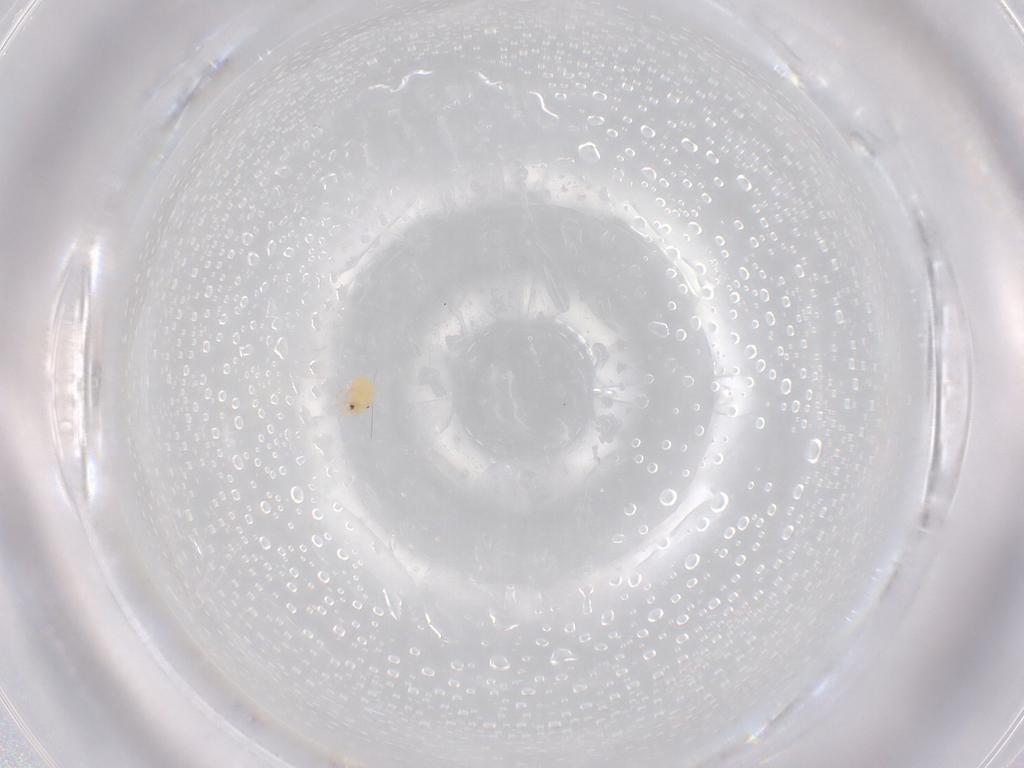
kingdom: Animalia
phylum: Arthropoda
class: Arachnida
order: Trombidiformes
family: Lebertiidae
